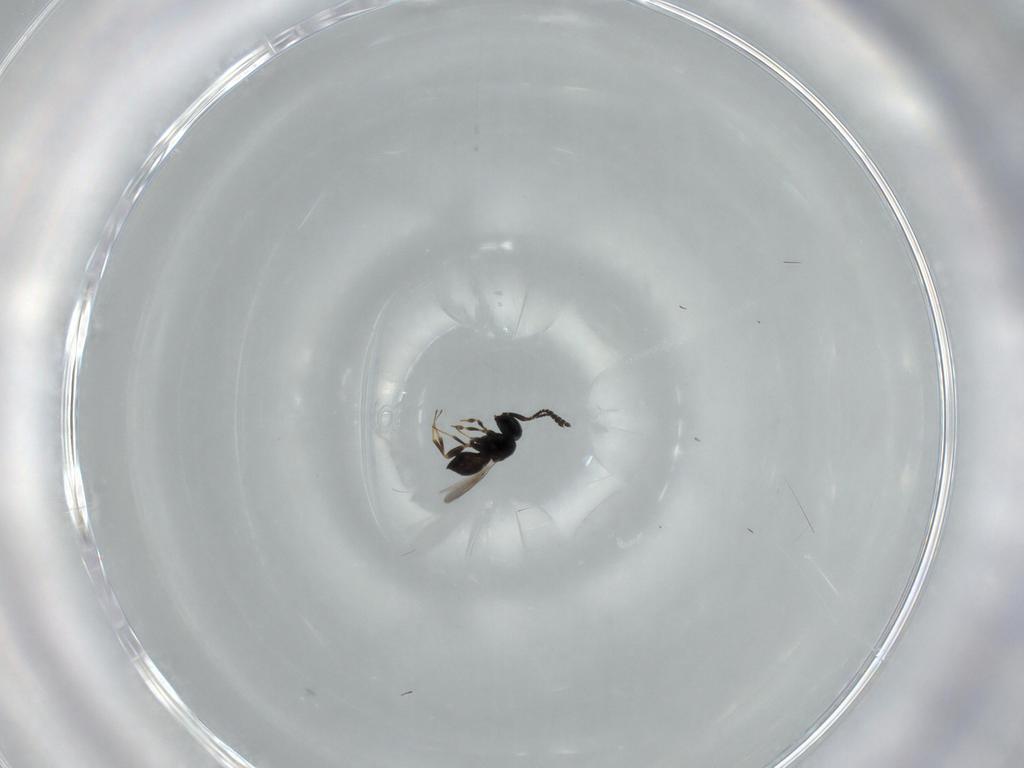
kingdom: Animalia
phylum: Arthropoda
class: Insecta
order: Hymenoptera
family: Scelionidae
